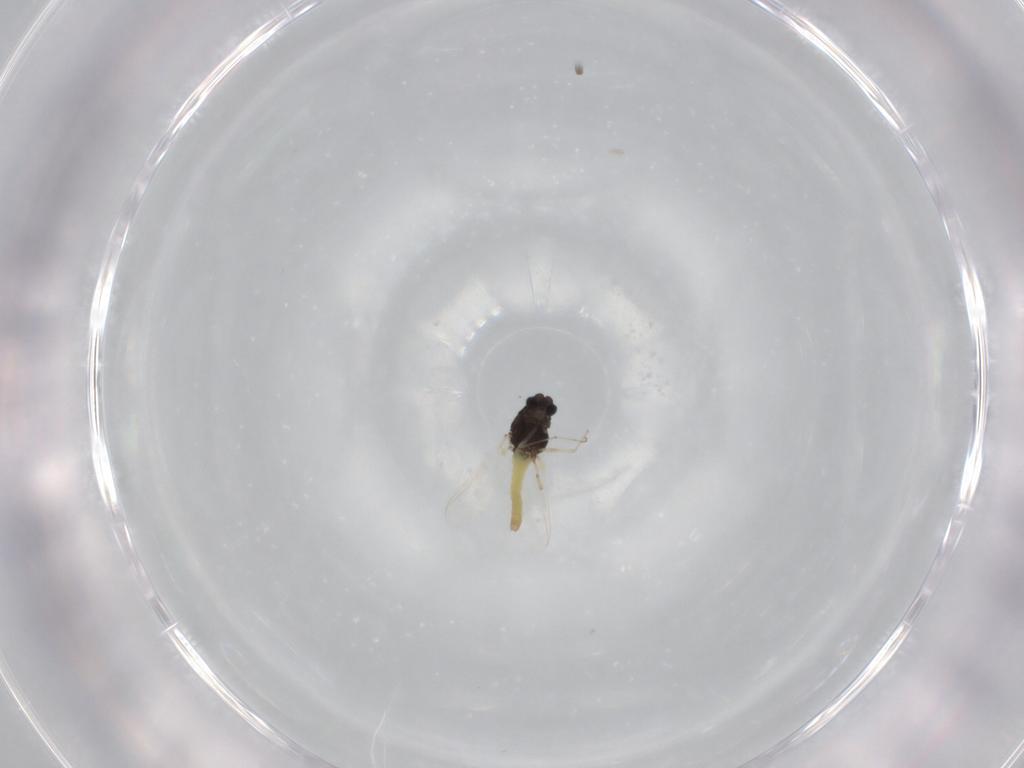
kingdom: Animalia
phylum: Arthropoda
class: Insecta
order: Diptera
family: Chironomidae
